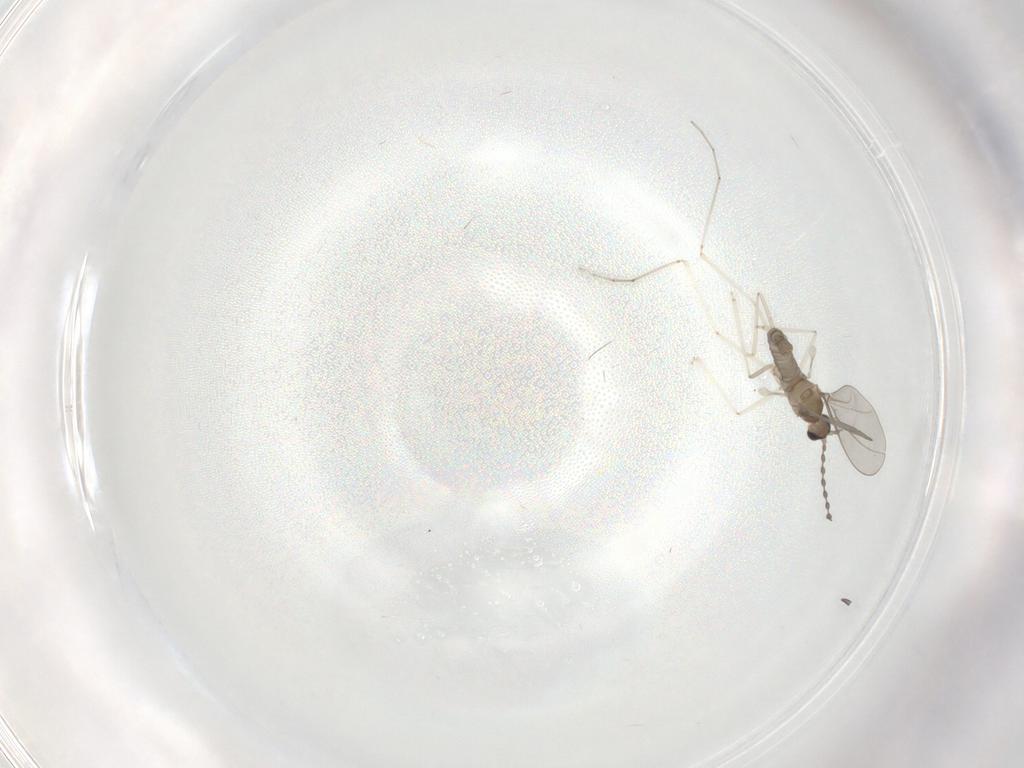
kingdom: Animalia
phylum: Arthropoda
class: Insecta
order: Diptera
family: Cecidomyiidae
